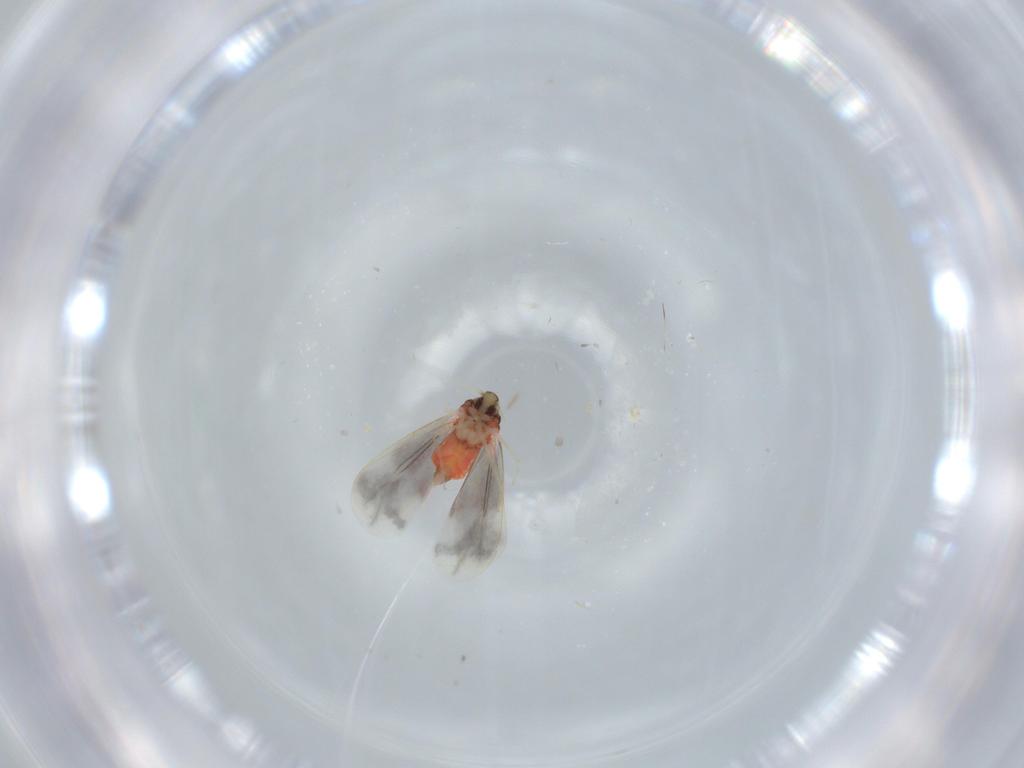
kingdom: Animalia
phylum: Arthropoda
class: Insecta
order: Hemiptera
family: Aleyrodidae
